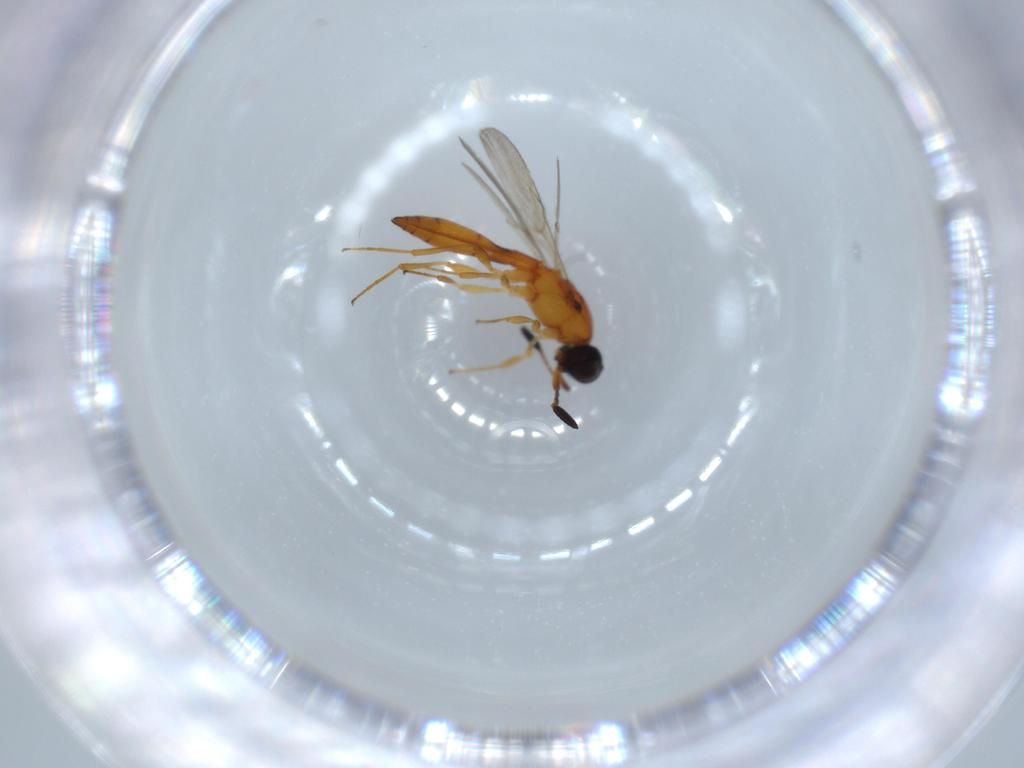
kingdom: Animalia
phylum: Arthropoda
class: Insecta
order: Hymenoptera
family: Scelionidae
